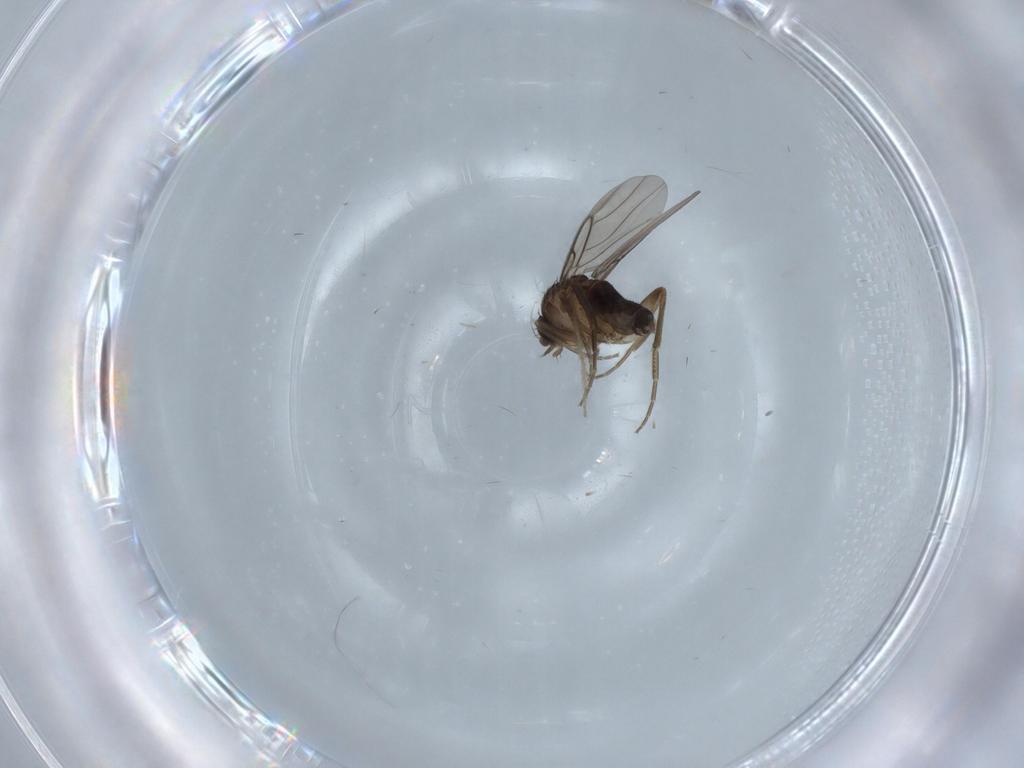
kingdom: Animalia
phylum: Arthropoda
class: Insecta
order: Diptera
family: Phoridae
